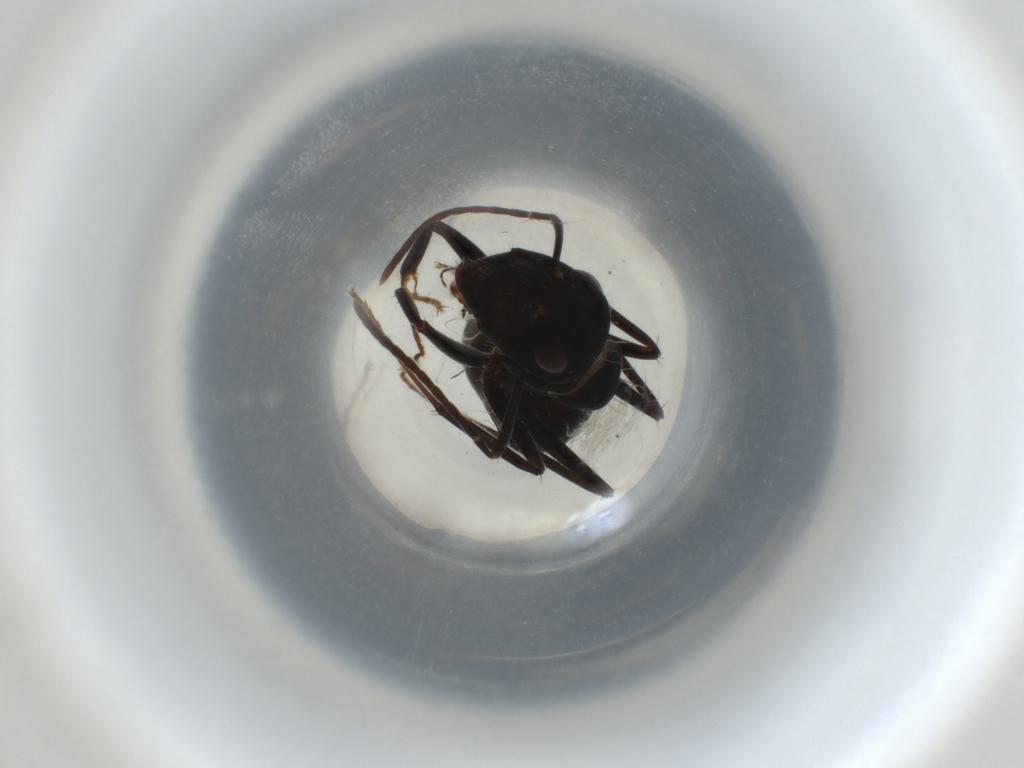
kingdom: Animalia
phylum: Arthropoda
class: Insecta
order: Hymenoptera
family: Formicidae
